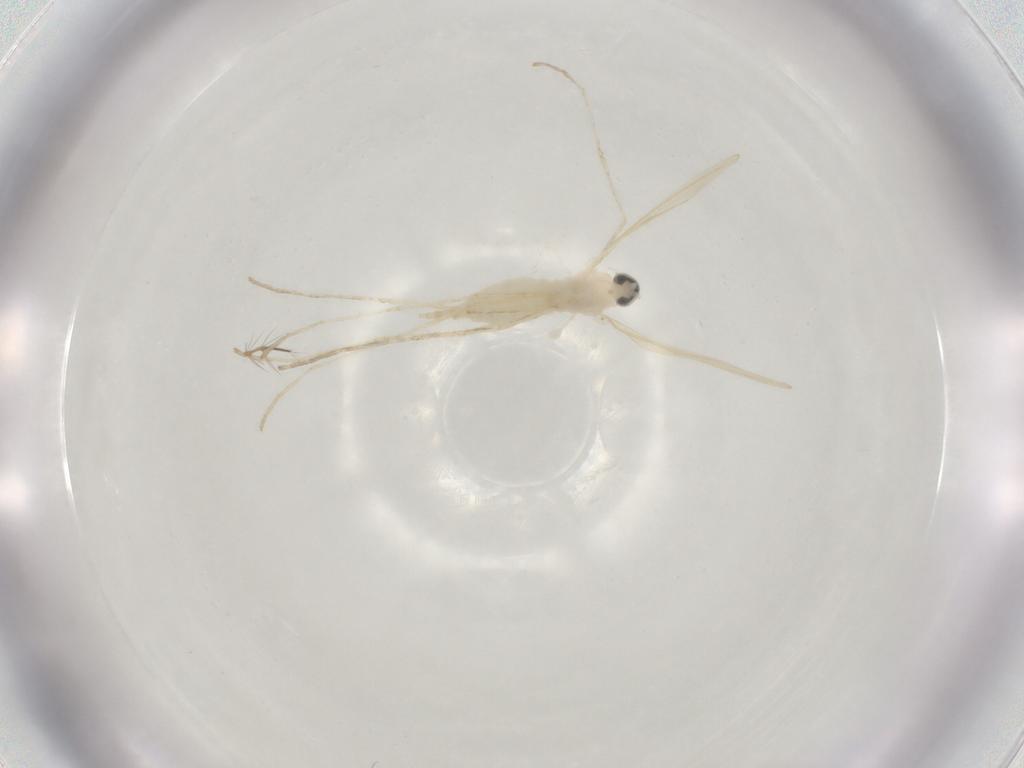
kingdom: Animalia
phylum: Arthropoda
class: Insecta
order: Diptera
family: Cecidomyiidae
